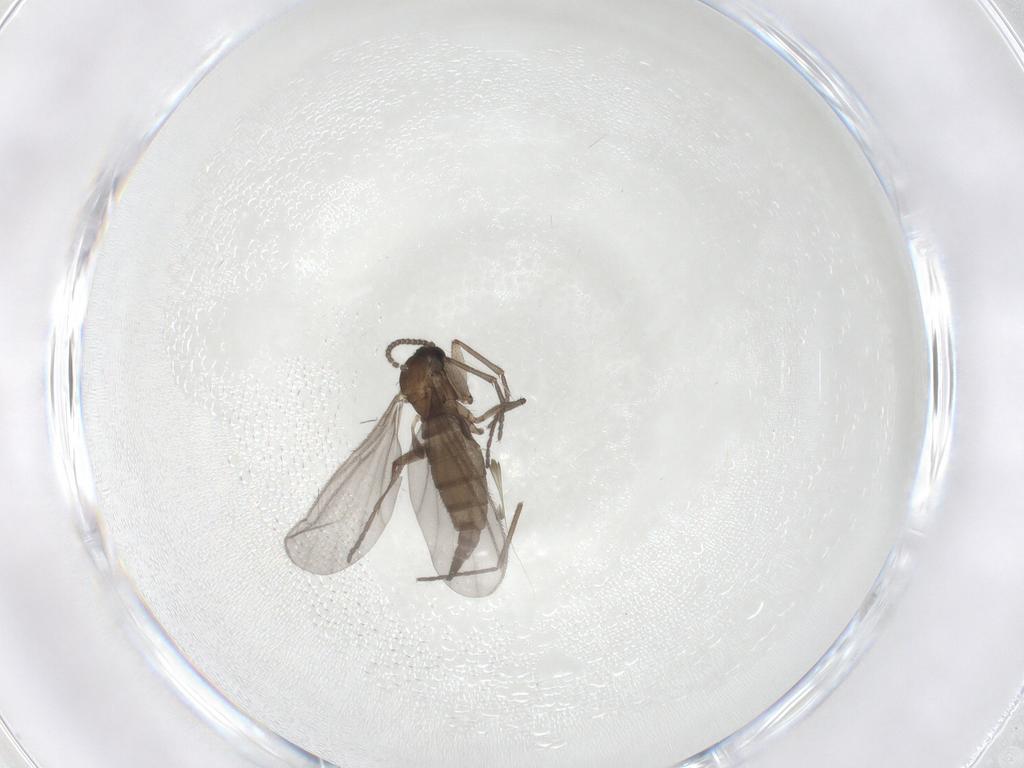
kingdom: Animalia
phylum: Arthropoda
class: Insecta
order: Diptera
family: Sciaridae
